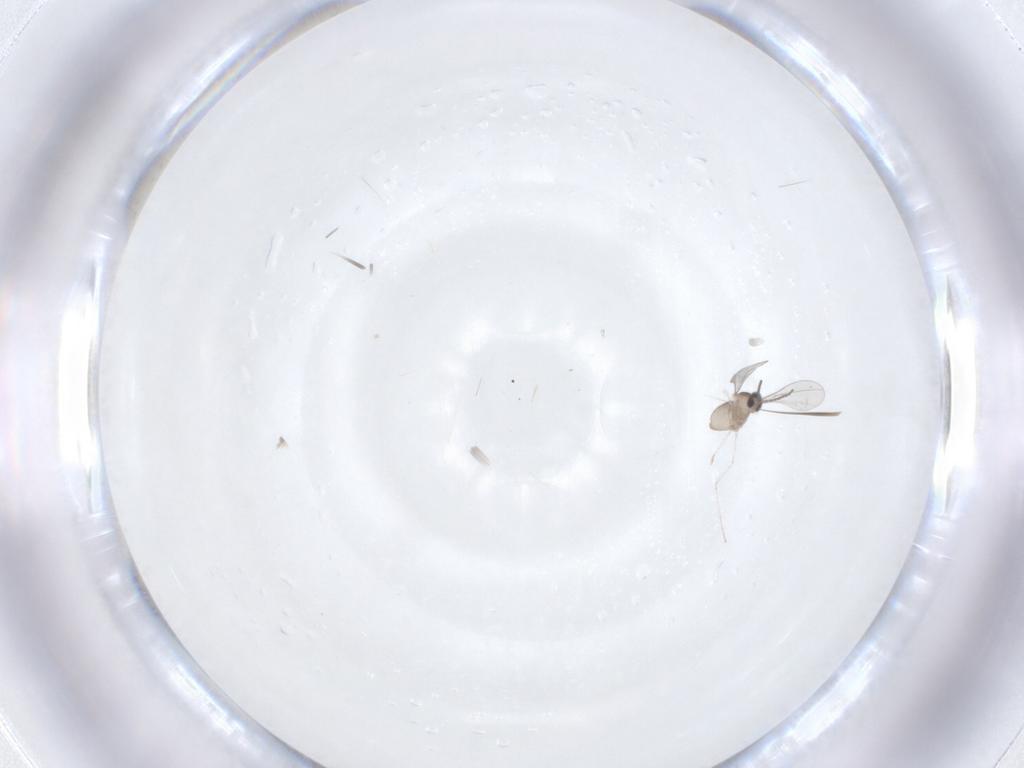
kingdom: Animalia
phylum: Arthropoda
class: Insecta
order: Diptera
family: Cecidomyiidae
